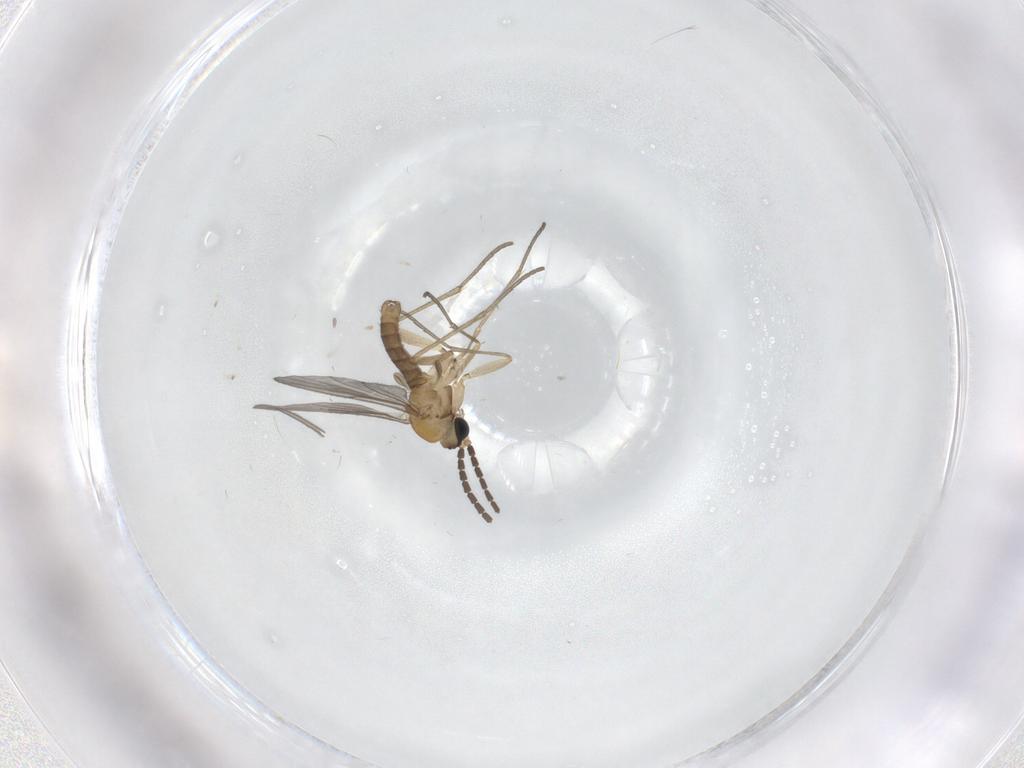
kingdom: Animalia
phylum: Arthropoda
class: Insecta
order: Diptera
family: Sciaridae
